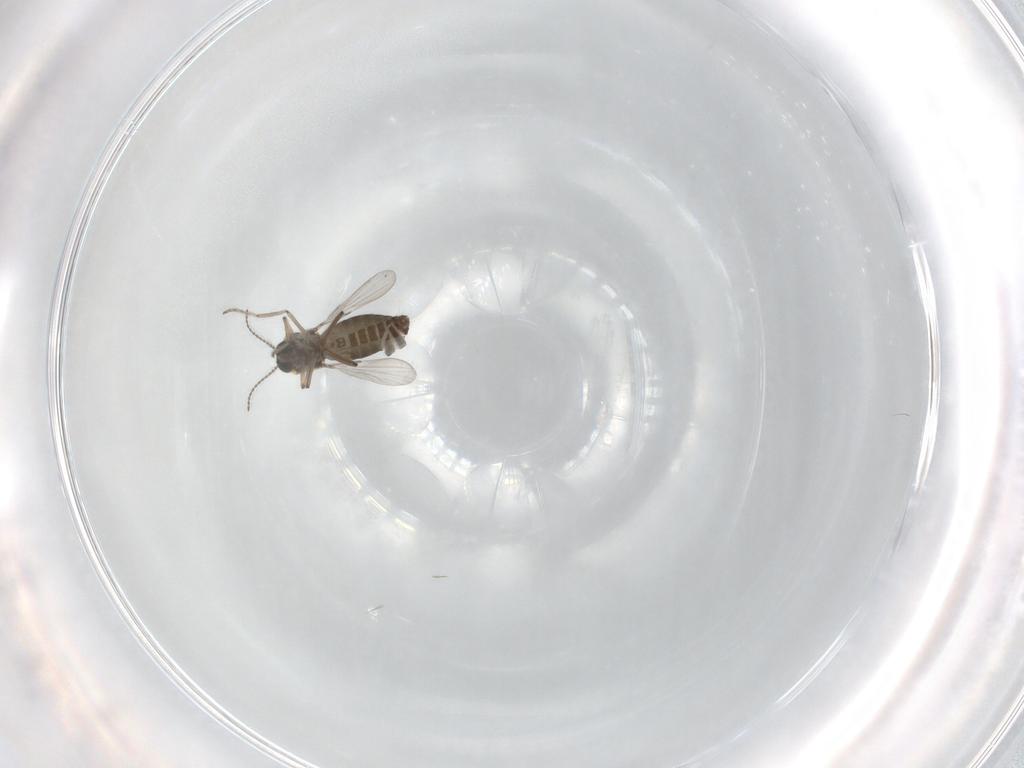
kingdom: Animalia
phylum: Arthropoda
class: Insecta
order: Diptera
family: Ceratopogonidae
